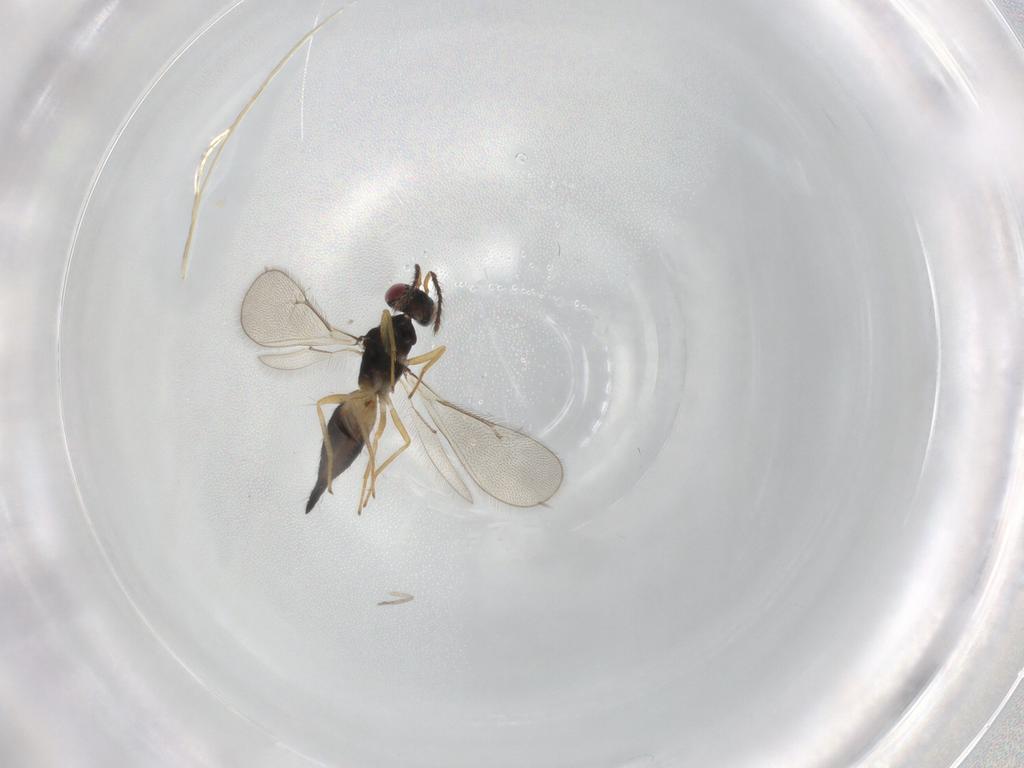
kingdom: Animalia
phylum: Arthropoda
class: Insecta
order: Hymenoptera
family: Eulophidae
